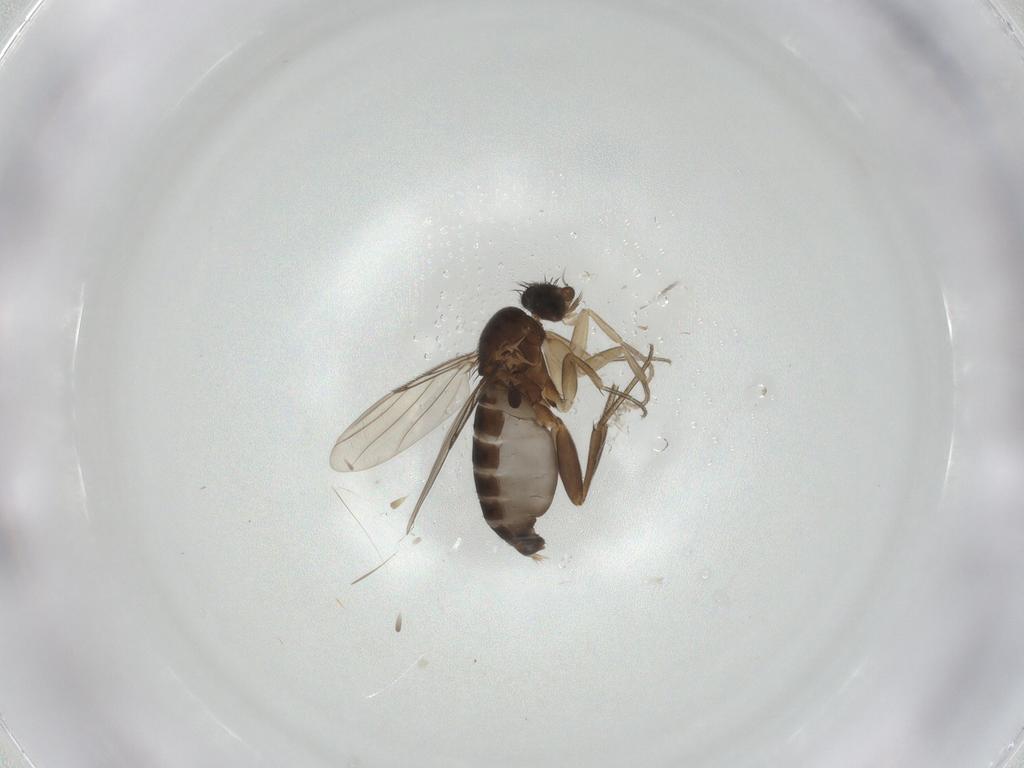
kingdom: Animalia
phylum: Arthropoda
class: Insecta
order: Diptera
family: Phoridae
